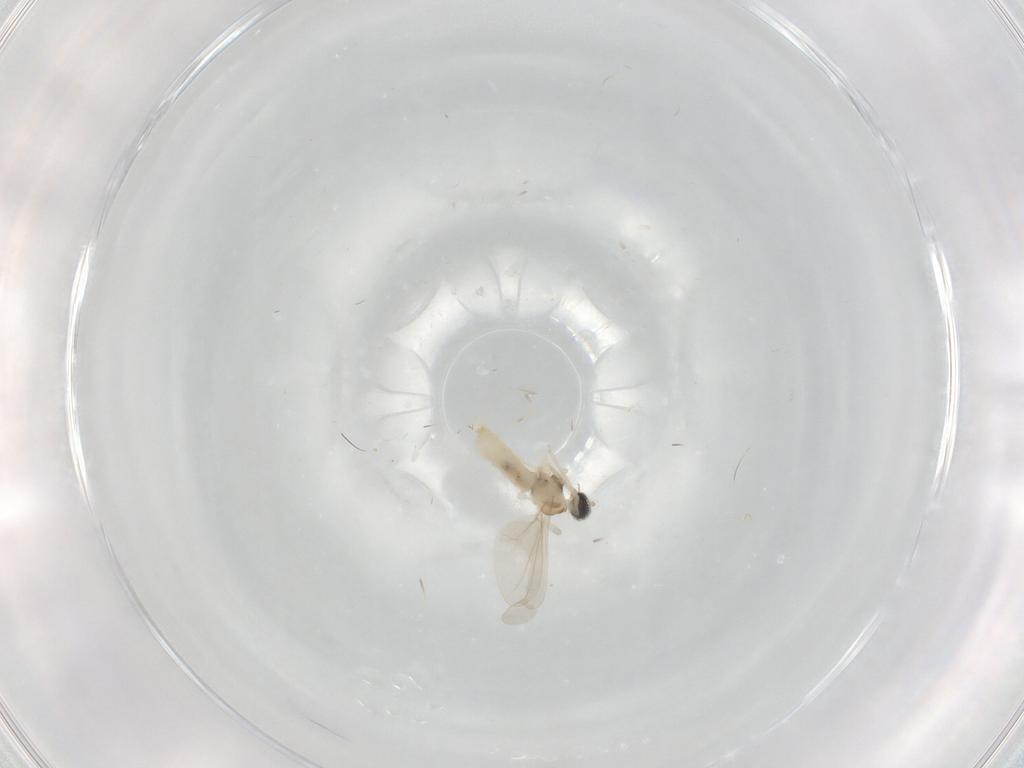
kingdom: Animalia
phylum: Arthropoda
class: Insecta
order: Diptera
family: Cecidomyiidae
